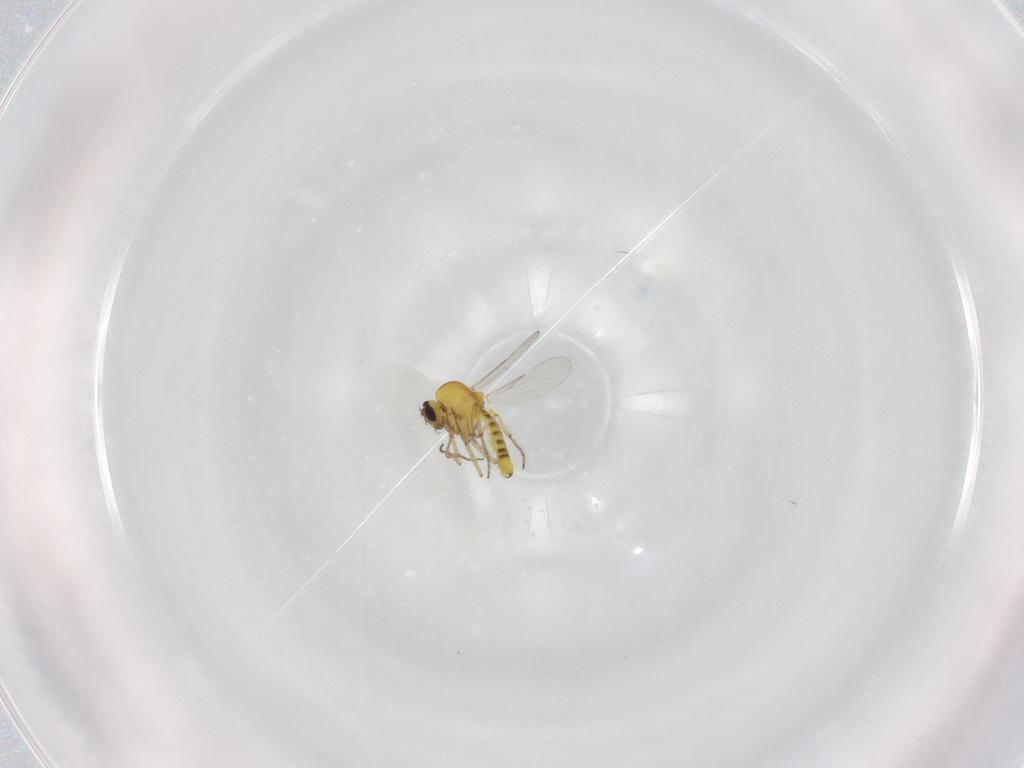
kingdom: Animalia
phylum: Arthropoda
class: Insecta
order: Diptera
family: Ceratopogonidae
